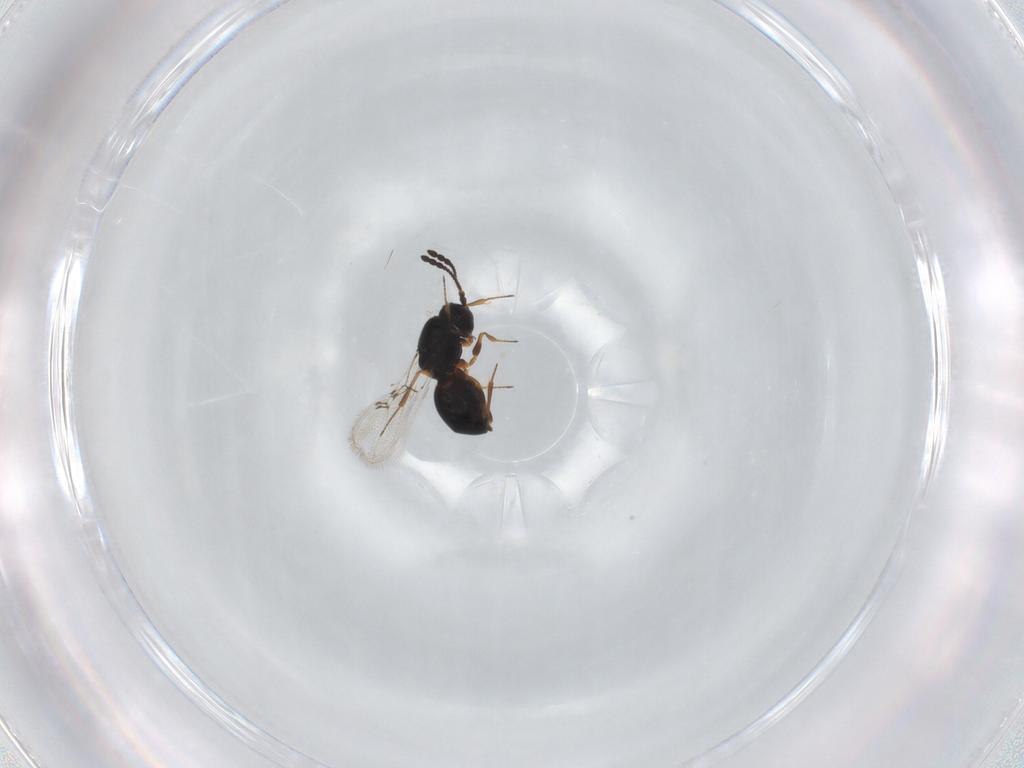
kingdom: Animalia
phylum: Arthropoda
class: Insecta
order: Hymenoptera
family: Figitidae
